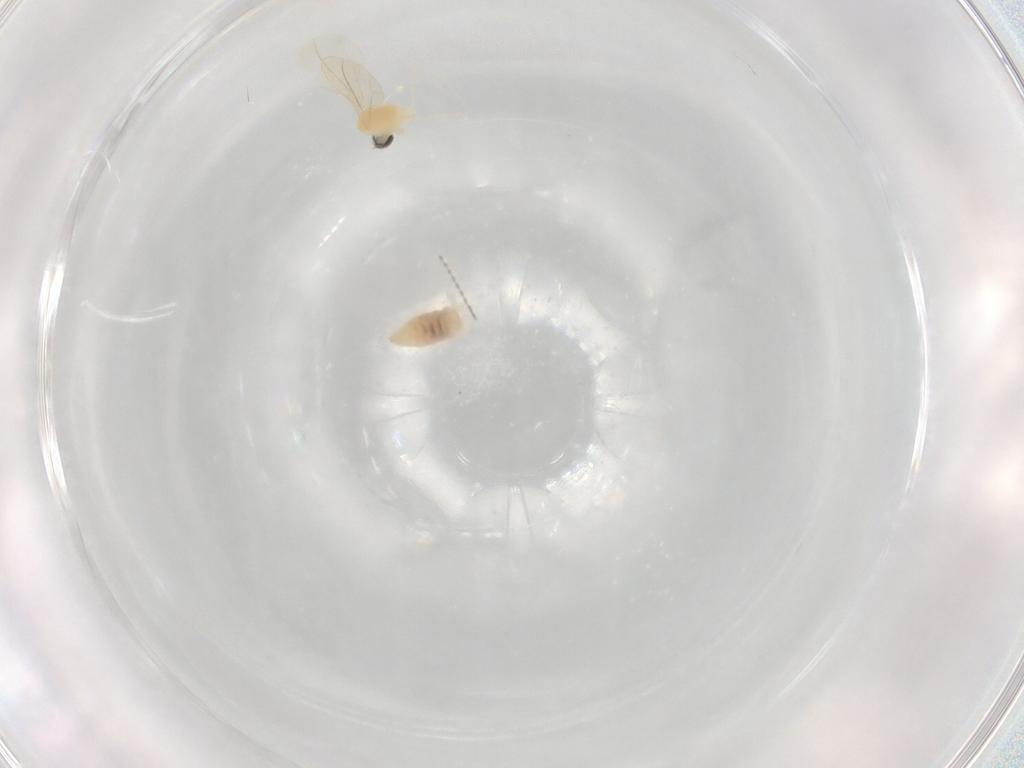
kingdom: Animalia
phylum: Arthropoda
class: Insecta
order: Diptera
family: Cecidomyiidae
